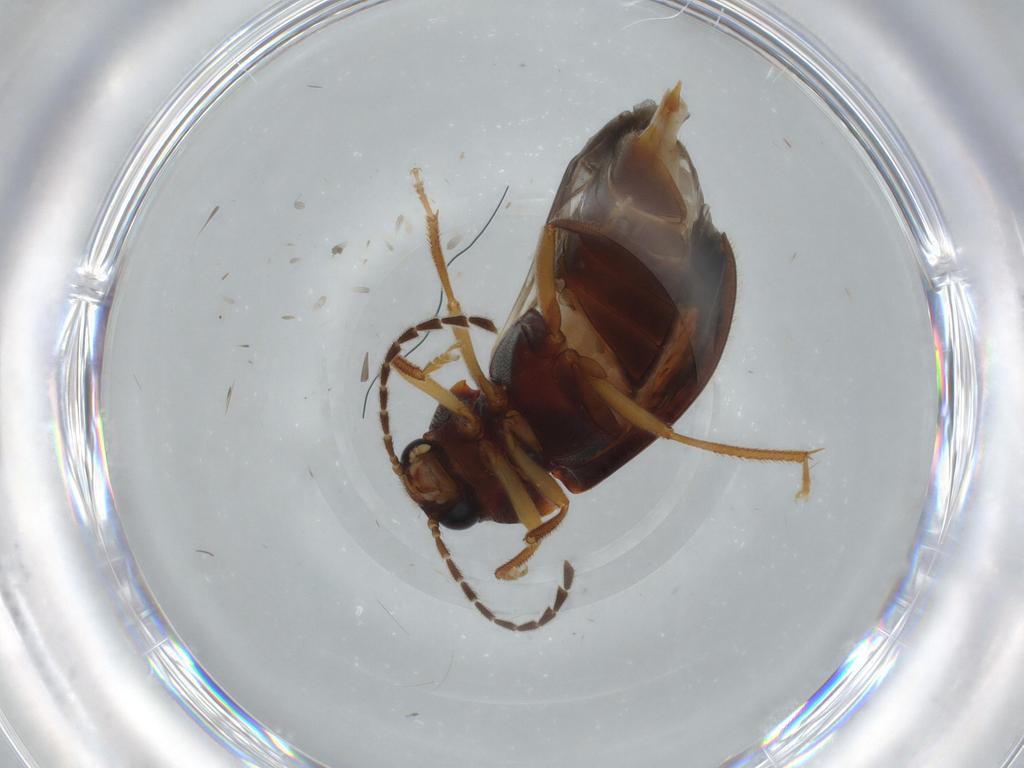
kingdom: Animalia
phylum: Arthropoda
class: Insecta
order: Coleoptera
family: Ptilodactylidae
